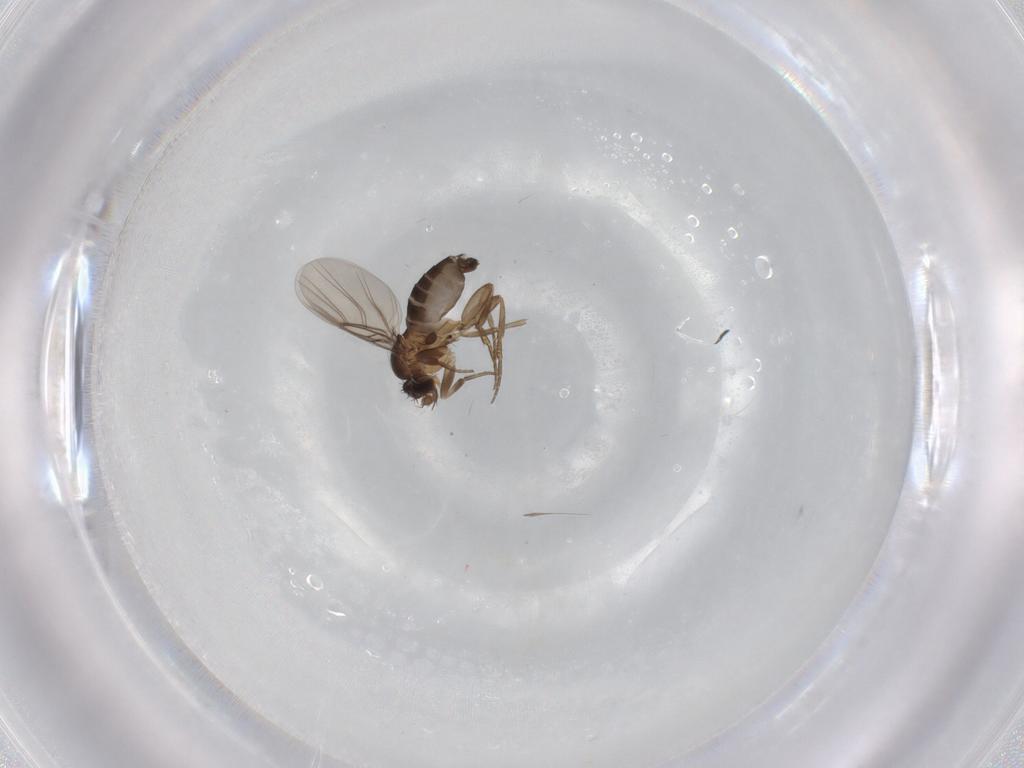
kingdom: Animalia
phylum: Arthropoda
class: Insecta
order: Diptera
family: Phoridae
